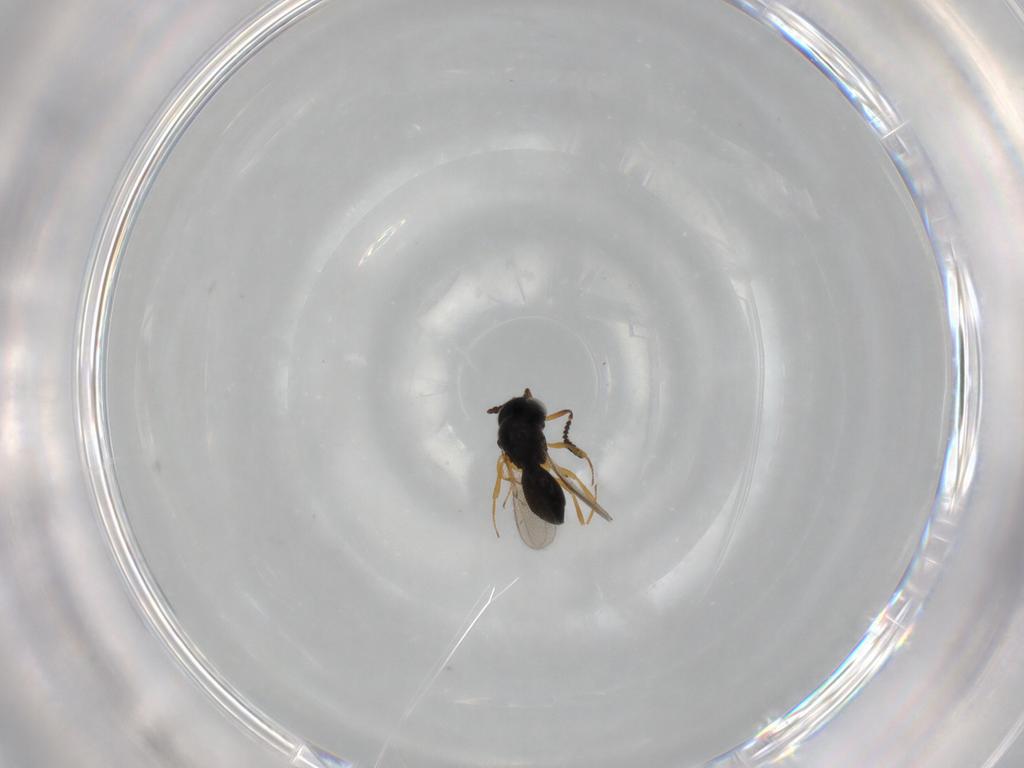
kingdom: Animalia
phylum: Arthropoda
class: Insecta
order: Hymenoptera
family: Scelionidae
